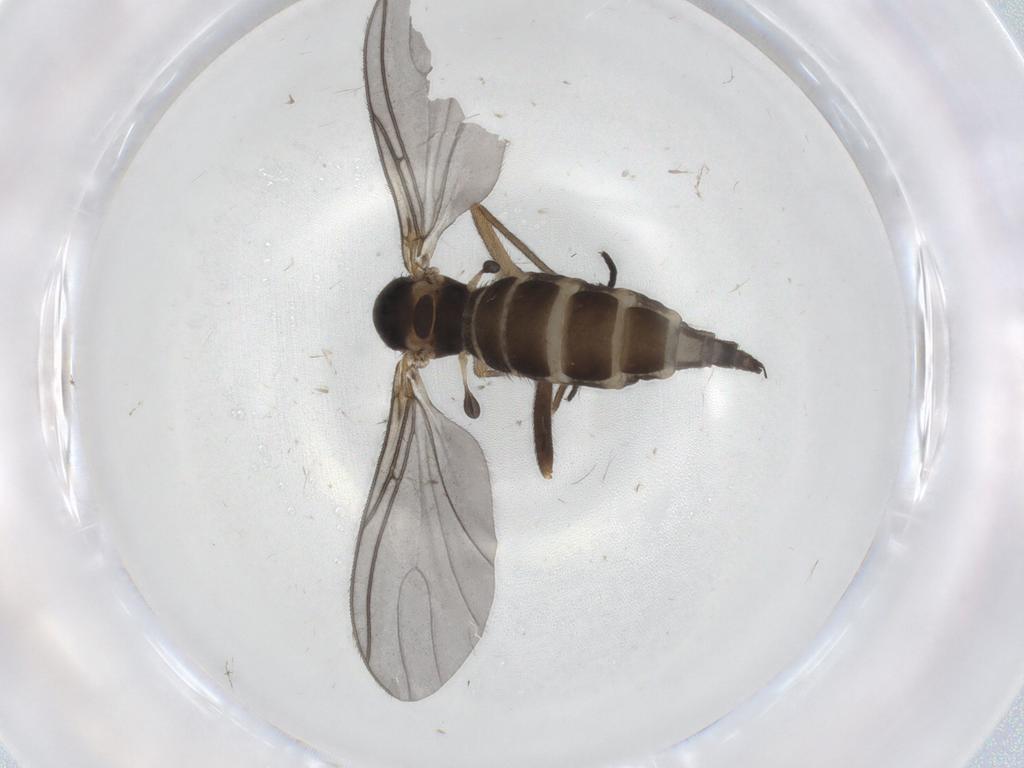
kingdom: Animalia
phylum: Arthropoda
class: Insecta
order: Diptera
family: Sciaridae
